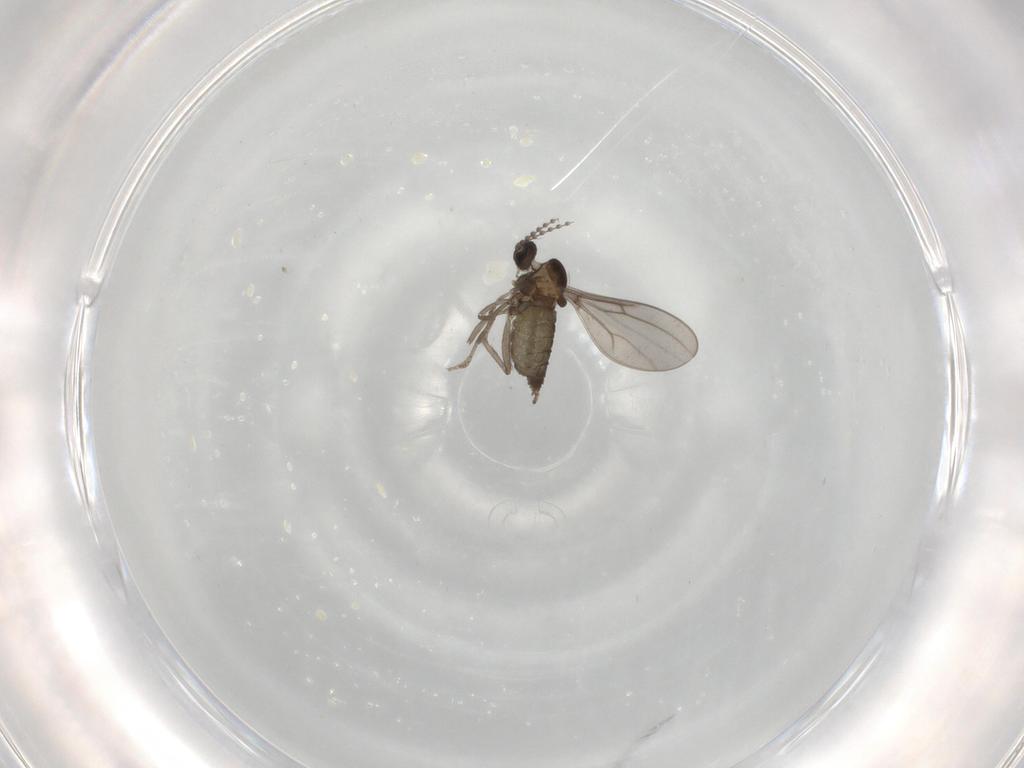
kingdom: Animalia
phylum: Arthropoda
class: Insecta
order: Diptera
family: Cecidomyiidae
